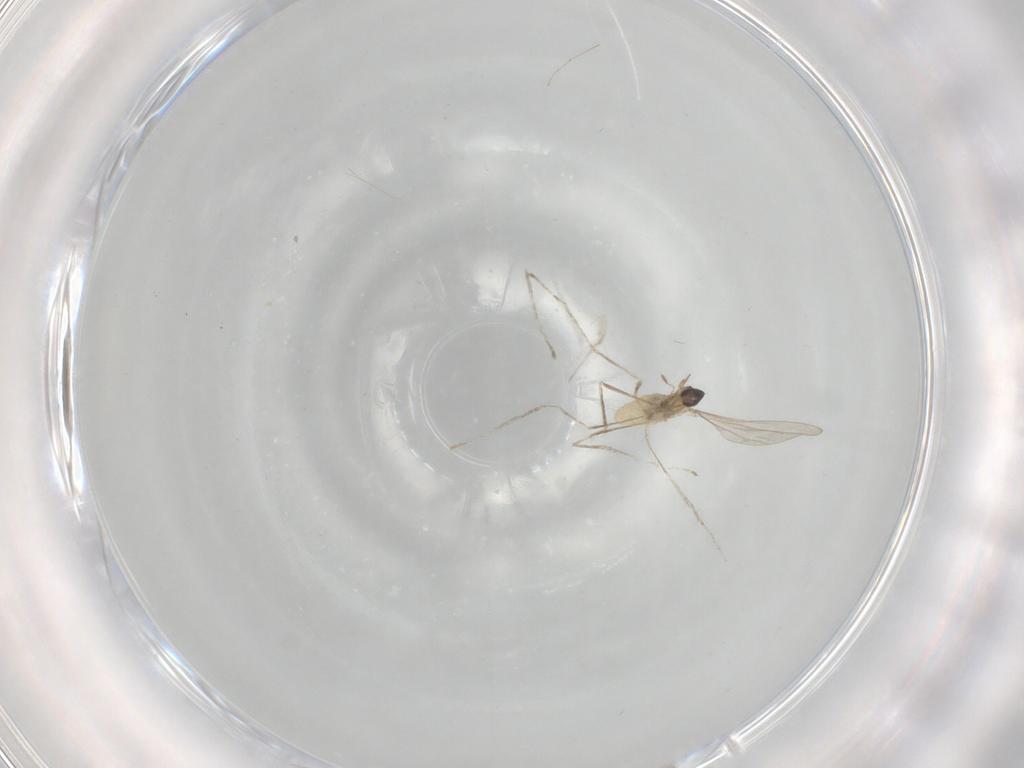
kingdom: Animalia
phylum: Arthropoda
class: Insecta
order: Diptera
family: Cecidomyiidae
